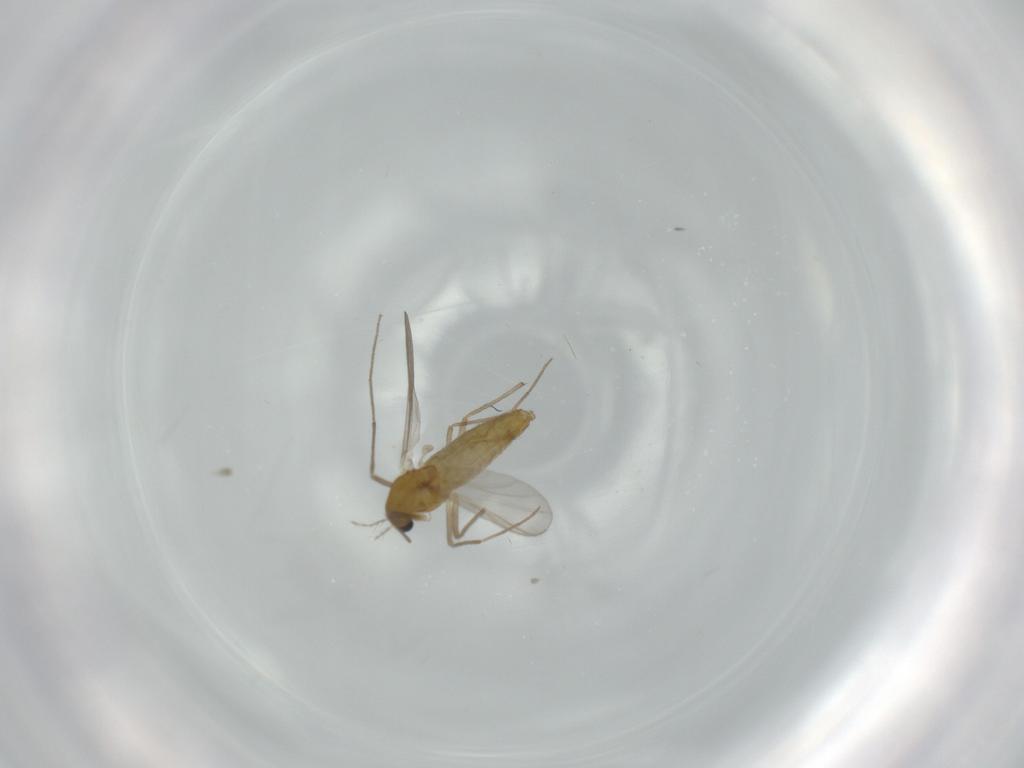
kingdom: Animalia
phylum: Arthropoda
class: Insecta
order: Diptera
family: Chironomidae
